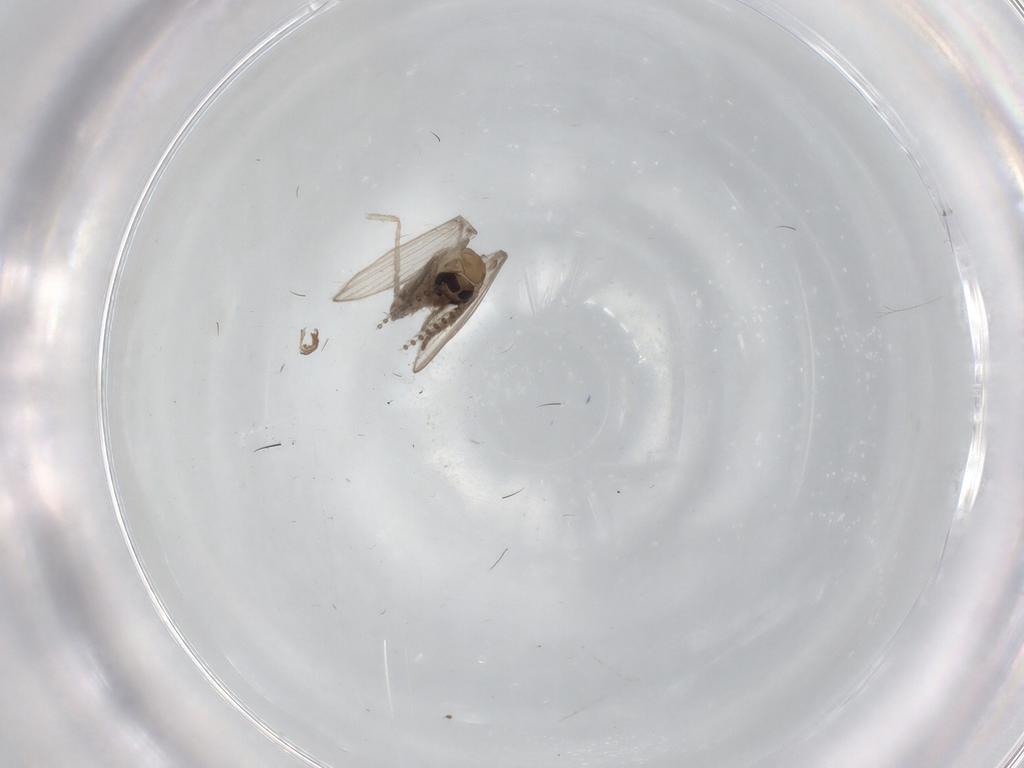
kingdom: Animalia
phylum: Arthropoda
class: Insecta
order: Diptera
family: Psychodidae
